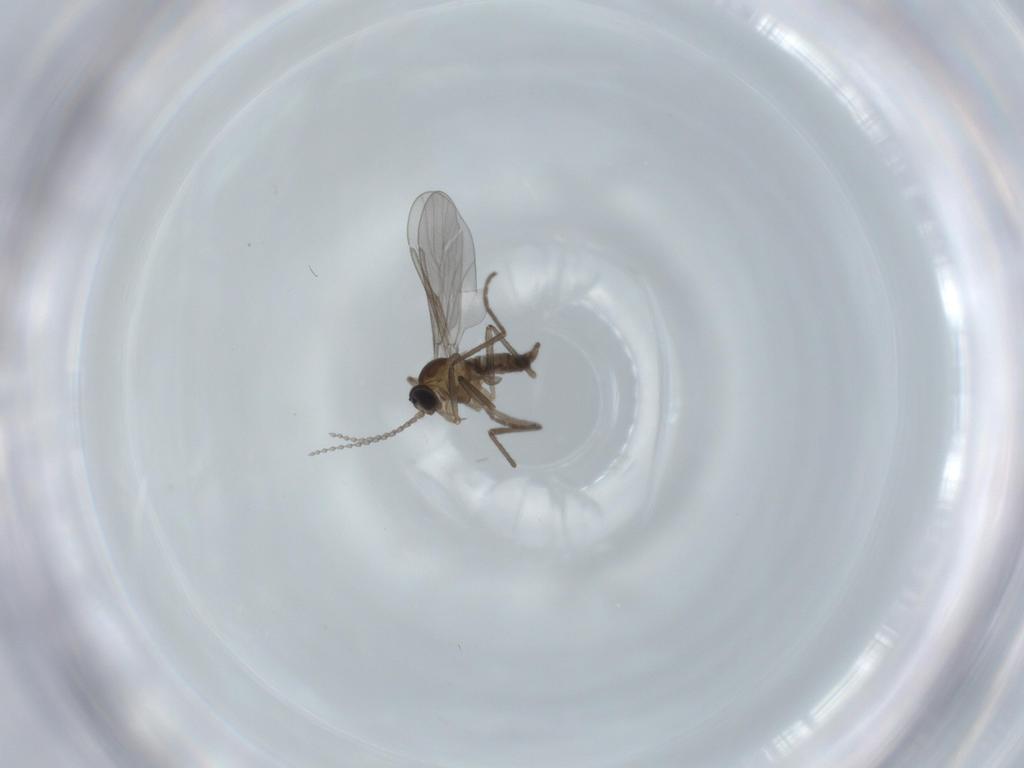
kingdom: Animalia
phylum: Arthropoda
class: Insecta
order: Diptera
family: Cecidomyiidae
